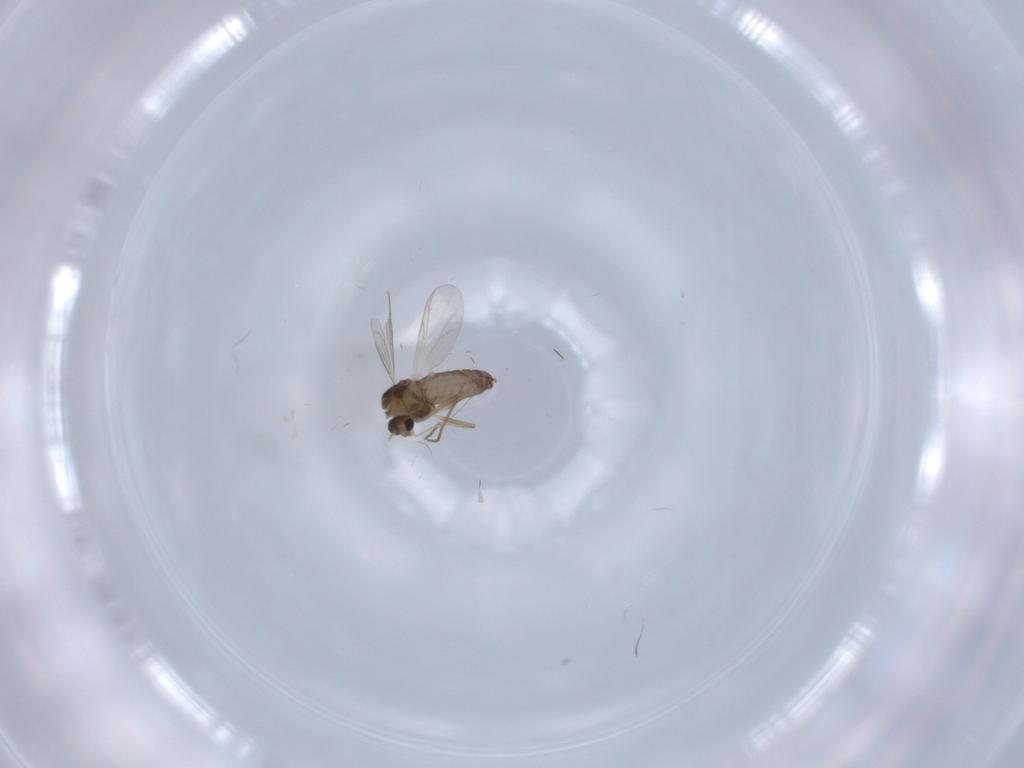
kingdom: Animalia
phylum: Arthropoda
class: Insecta
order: Diptera
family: Chironomidae
